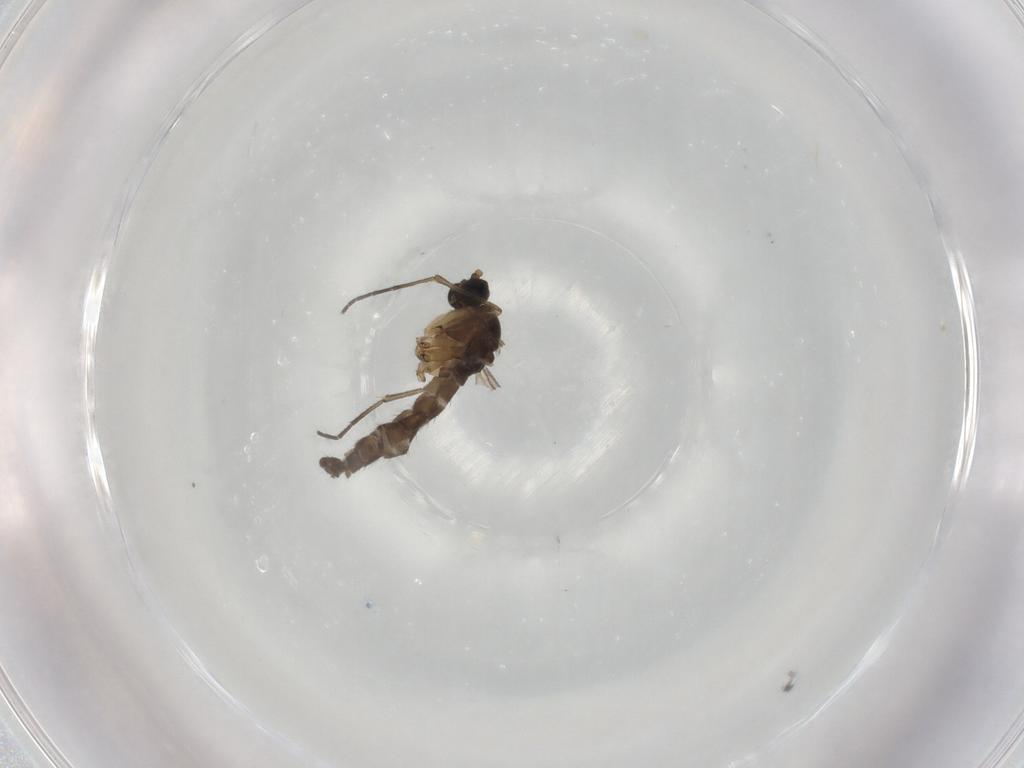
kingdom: Animalia
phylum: Arthropoda
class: Insecta
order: Diptera
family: Sciaridae
